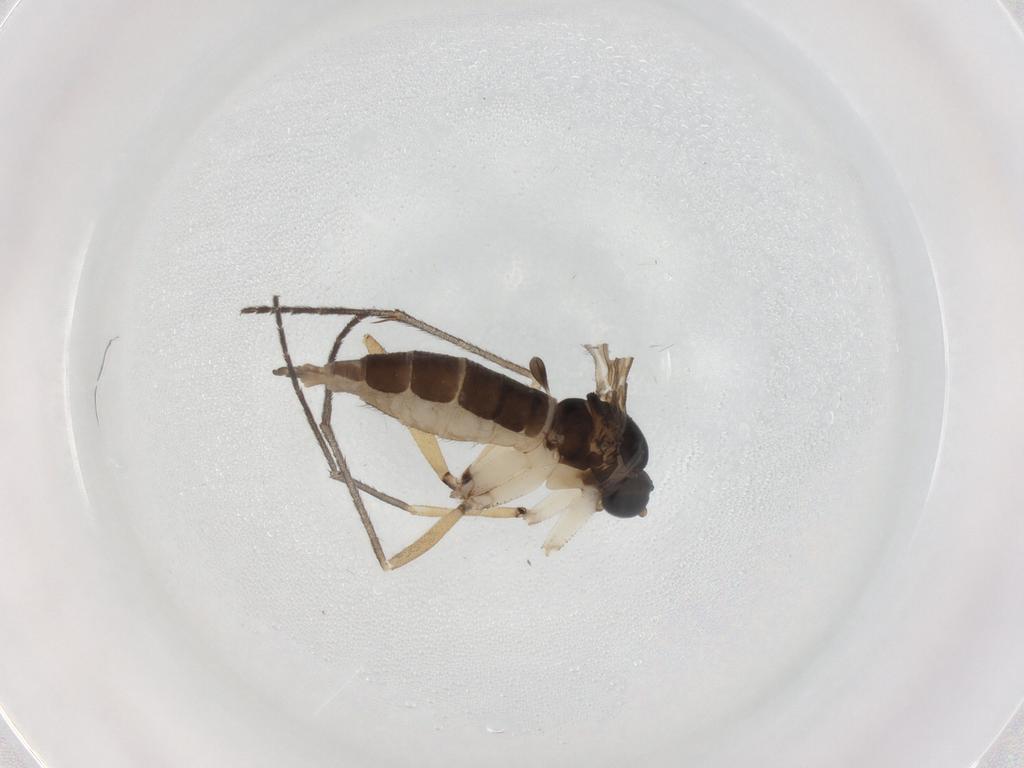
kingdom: Animalia
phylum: Arthropoda
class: Insecta
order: Diptera
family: Sciaridae
